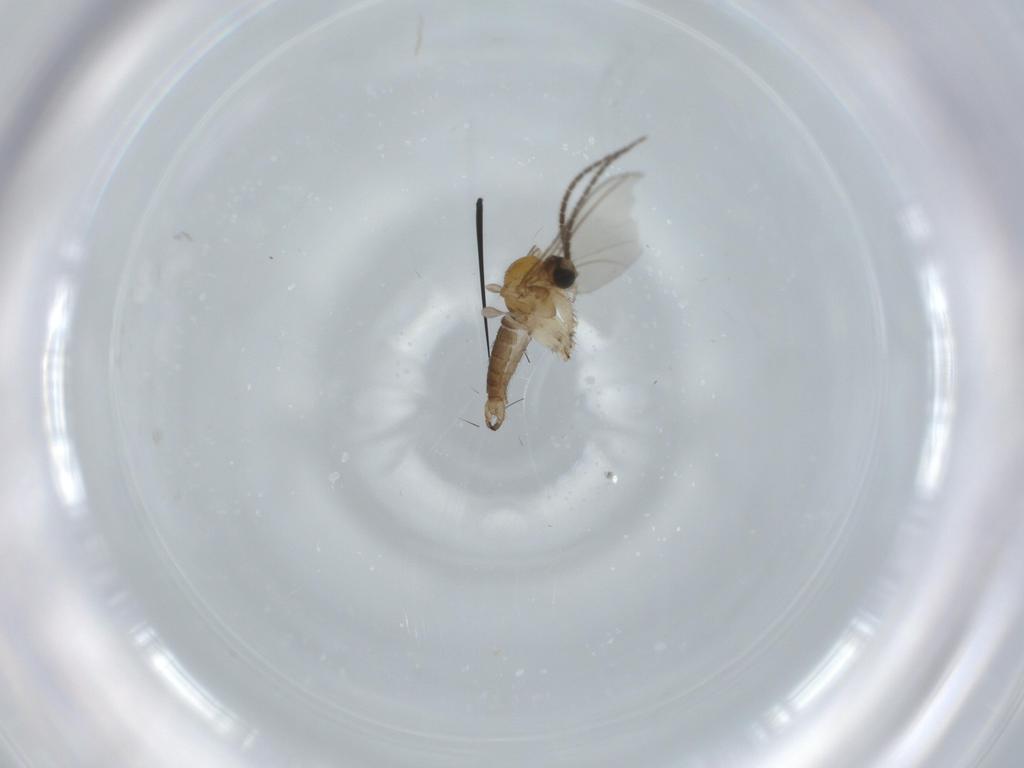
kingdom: Animalia
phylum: Arthropoda
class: Insecta
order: Diptera
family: Sciaridae
